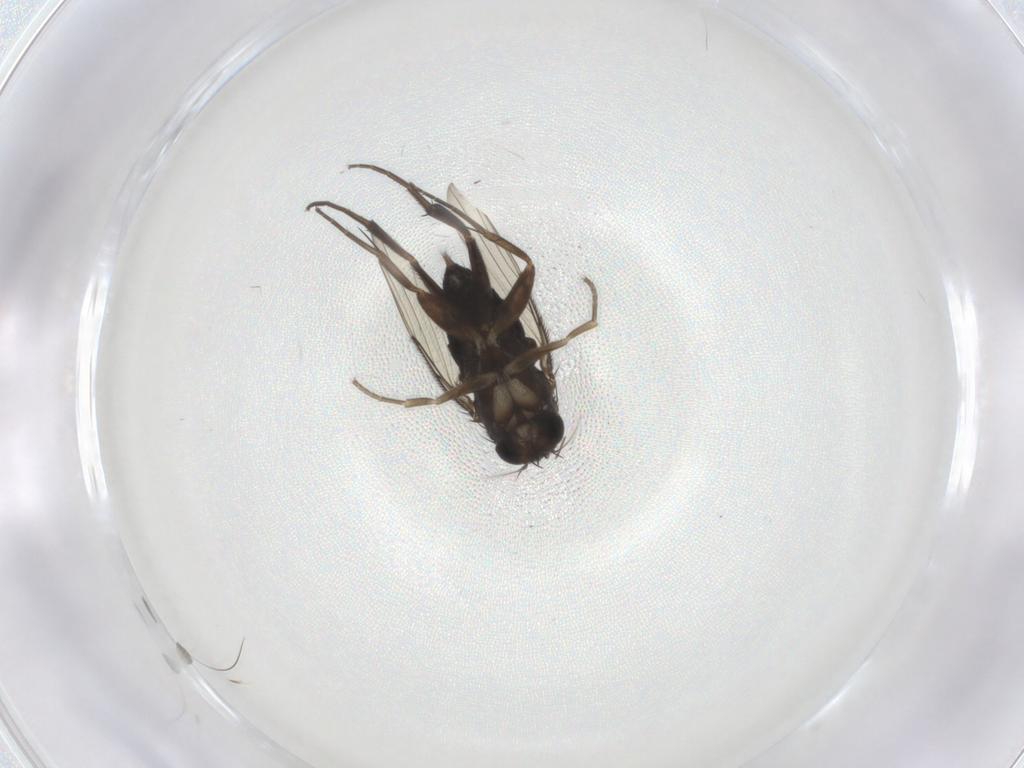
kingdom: Animalia
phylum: Arthropoda
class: Insecta
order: Diptera
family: Phoridae
